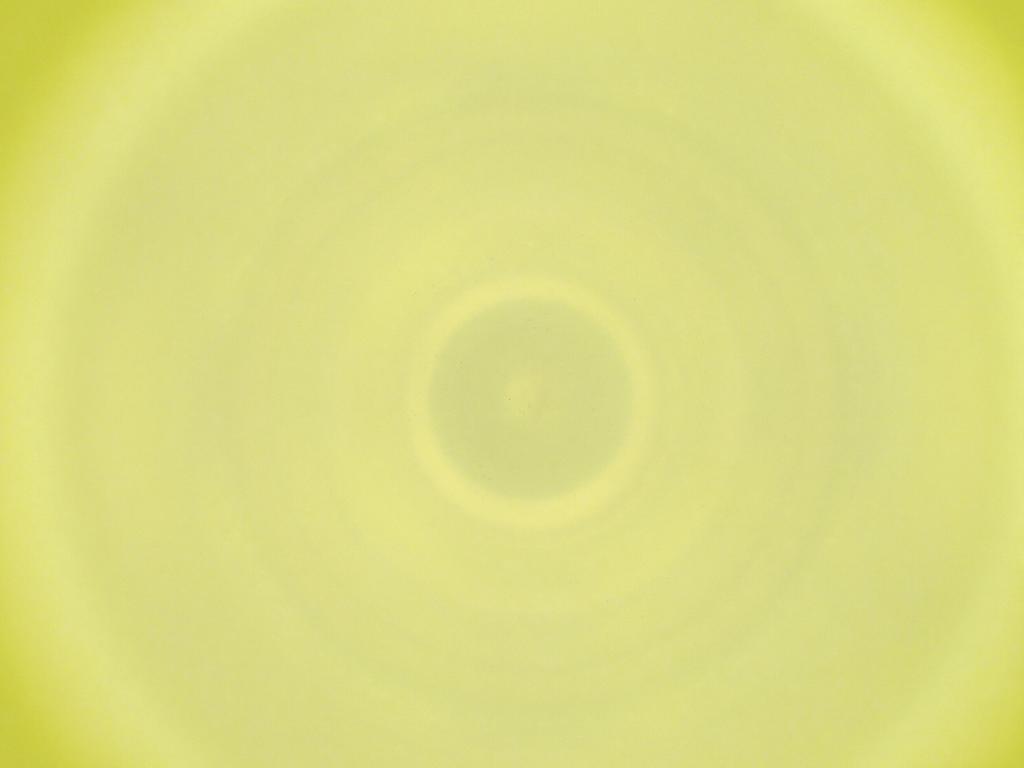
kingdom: Animalia
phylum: Arthropoda
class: Insecta
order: Diptera
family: Cecidomyiidae
